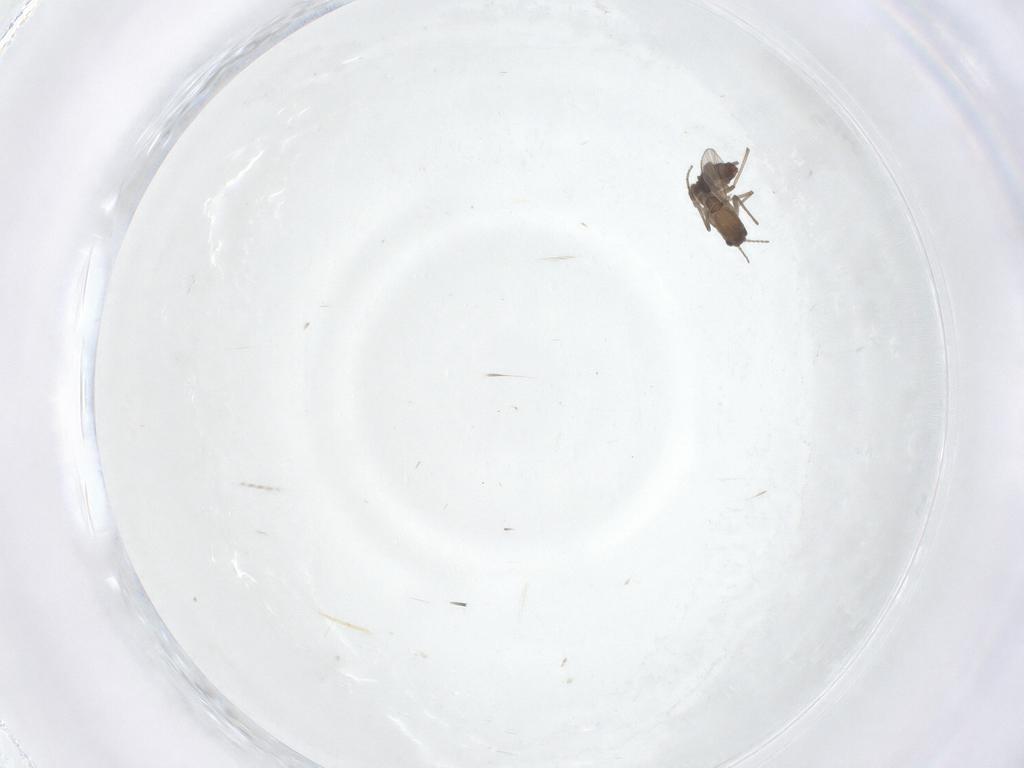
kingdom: Animalia
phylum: Arthropoda
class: Insecta
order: Diptera
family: Chironomidae
